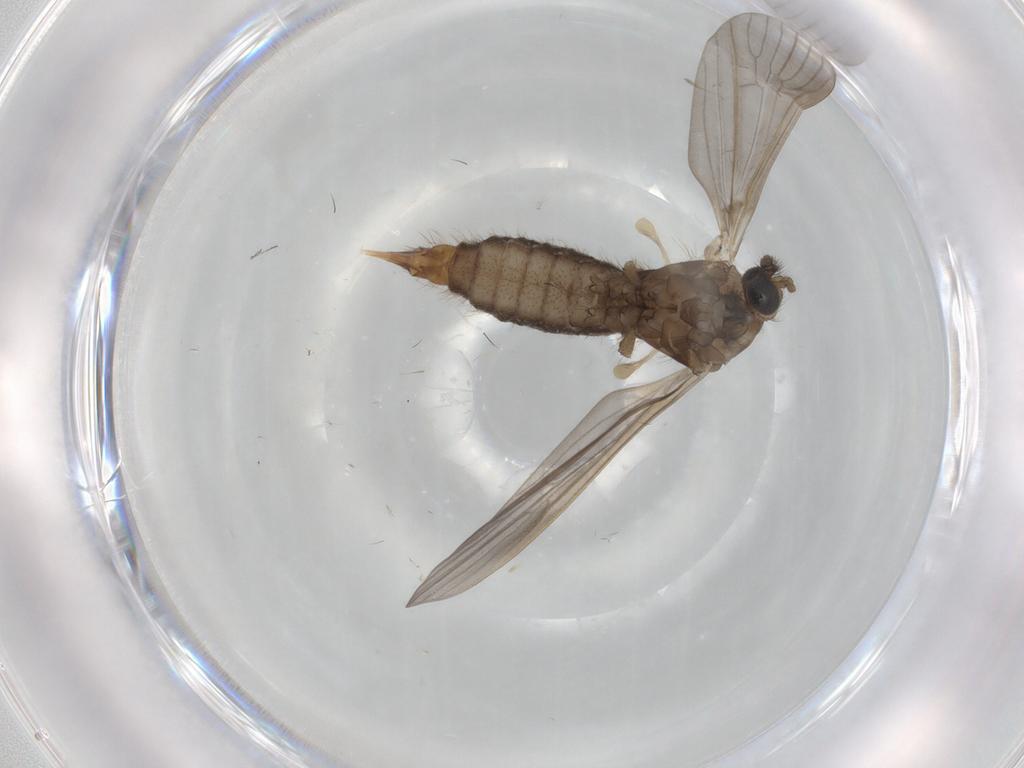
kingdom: Animalia
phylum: Arthropoda
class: Insecta
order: Diptera
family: Limoniidae
